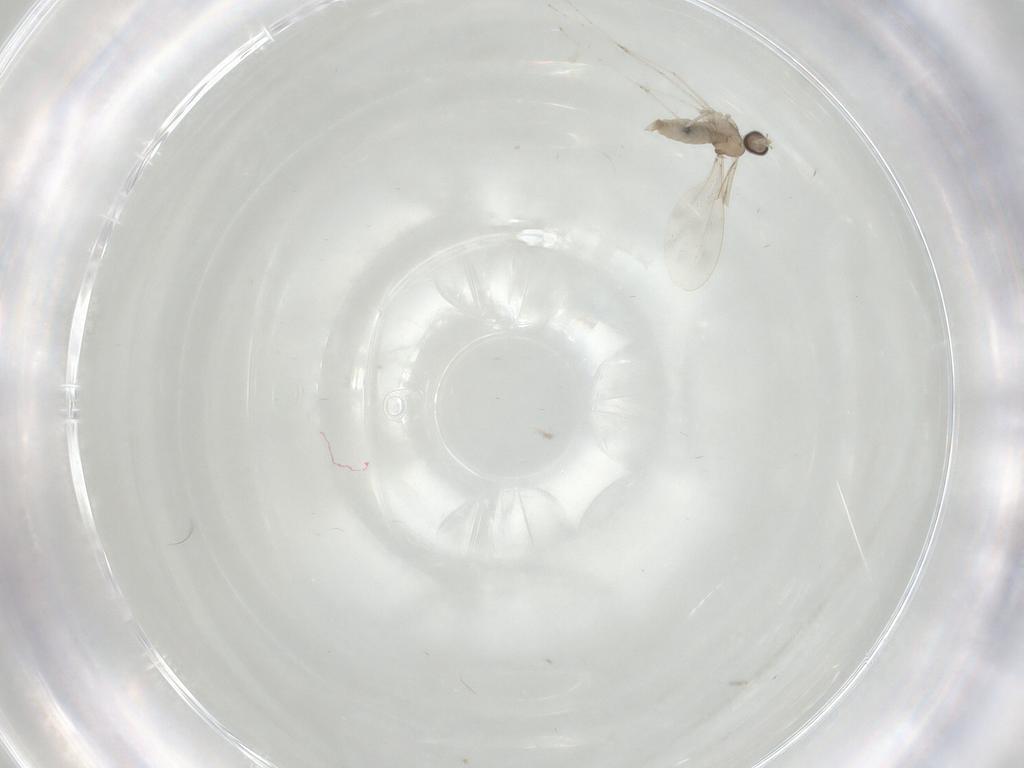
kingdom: Animalia
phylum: Arthropoda
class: Insecta
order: Diptera
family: Cecidomyiidae
